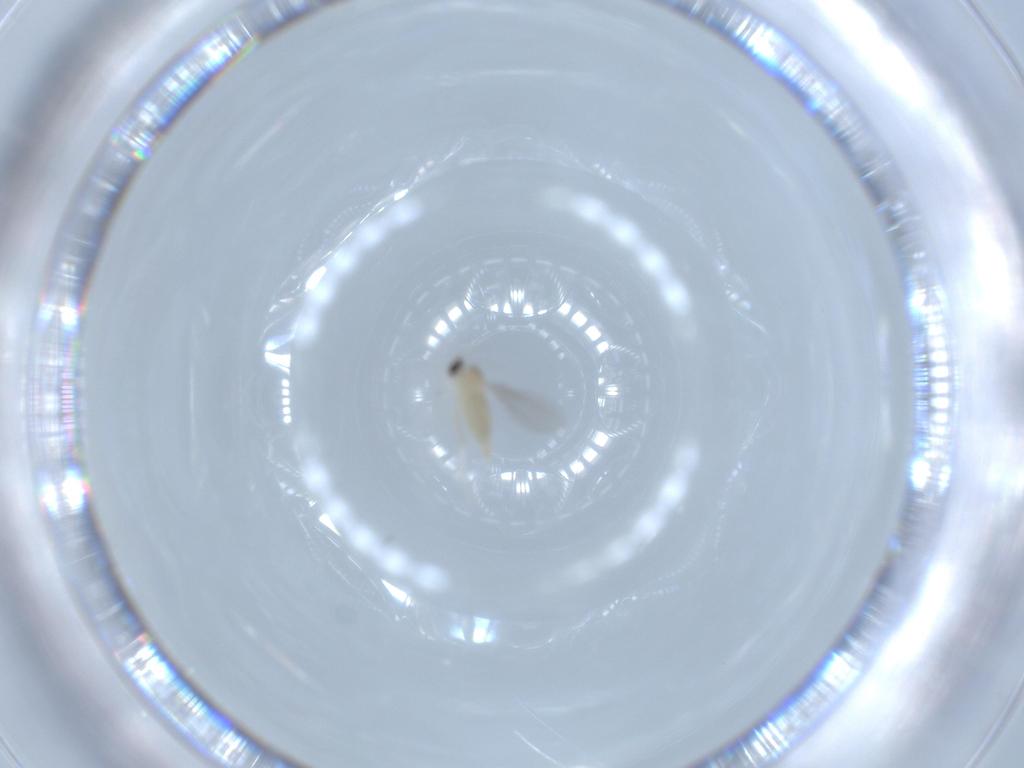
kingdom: Animalia
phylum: Arthropoda
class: Insecta
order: Diptera
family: Cecidomyiidae
